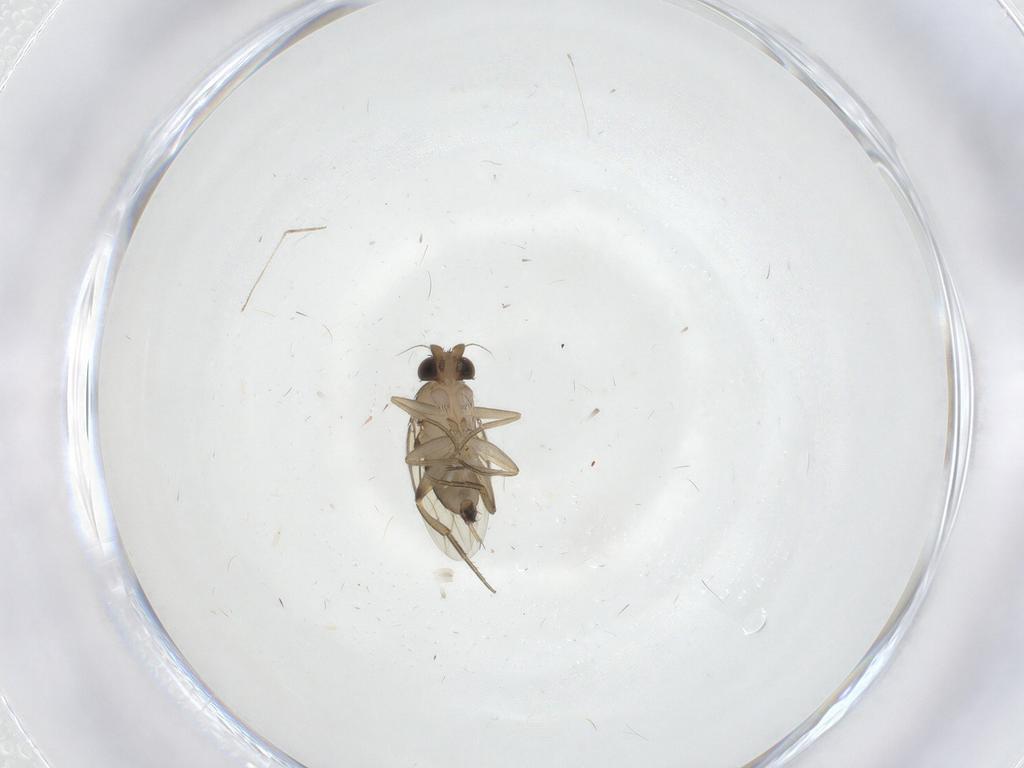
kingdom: Animalia
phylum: Arthropoda
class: Insecta
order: Diptera
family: Phoridae
